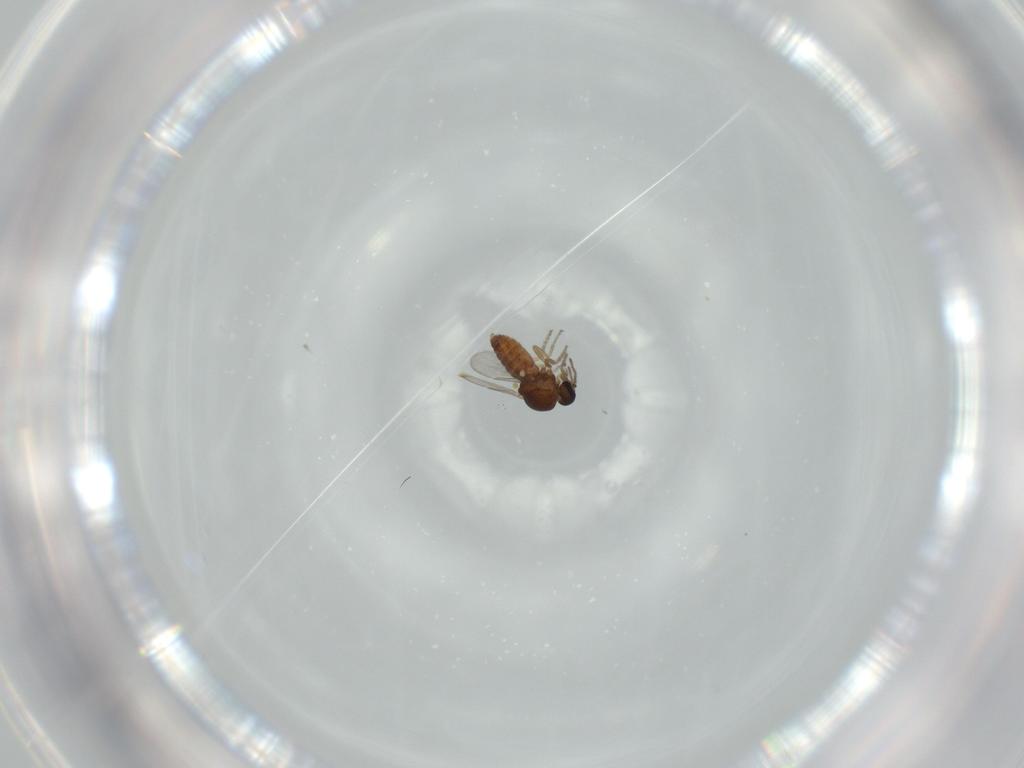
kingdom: Animalia
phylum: Arthropoda
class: Insecta
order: Diptera
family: Ceratopogonidae
